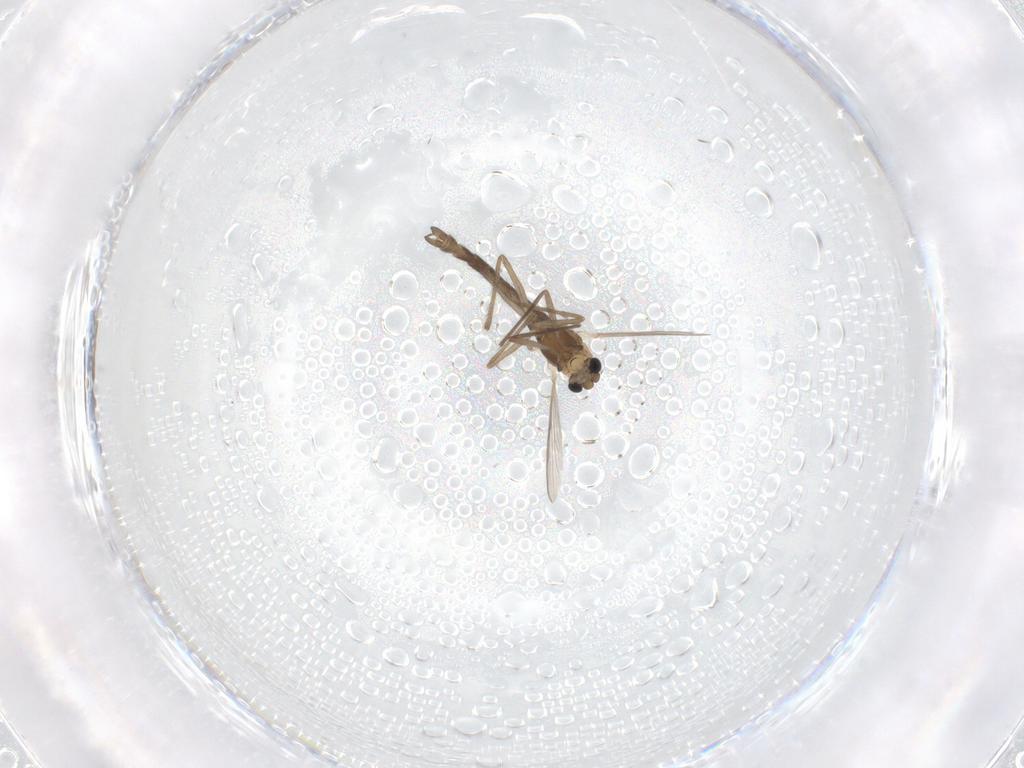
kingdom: Animalia
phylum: Arthropoda
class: Insecta
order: Diptera
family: Chironomidae
